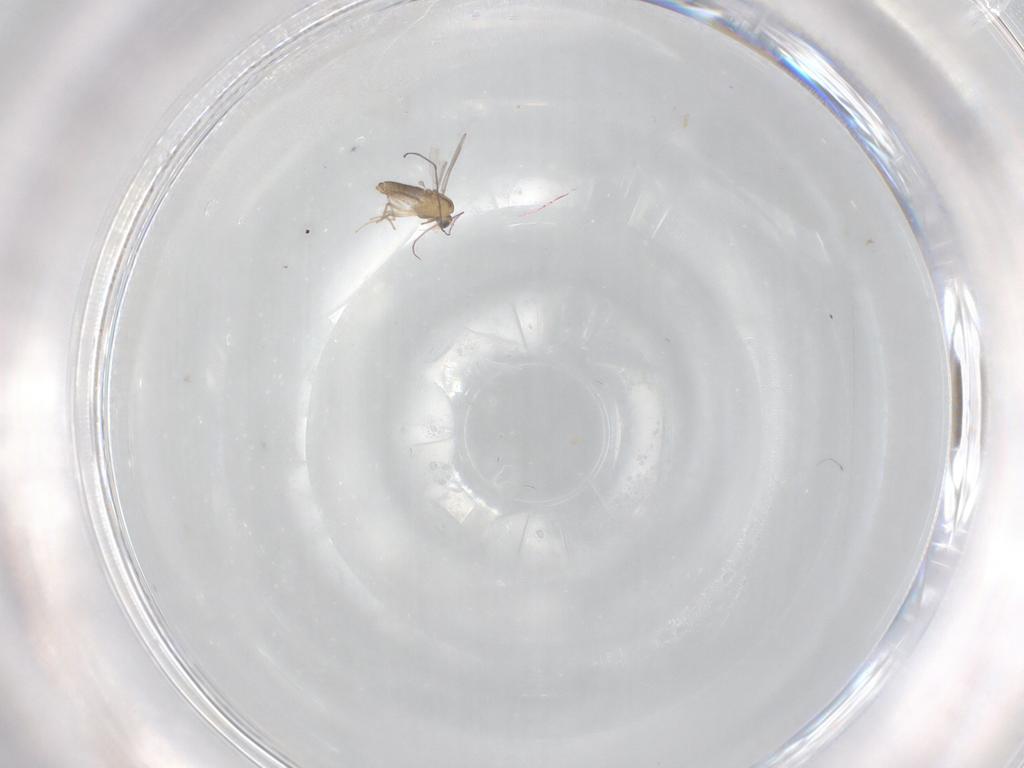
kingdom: Animalia
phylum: Arthropoda
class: Insecta
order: Diptera
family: Chironomidae
